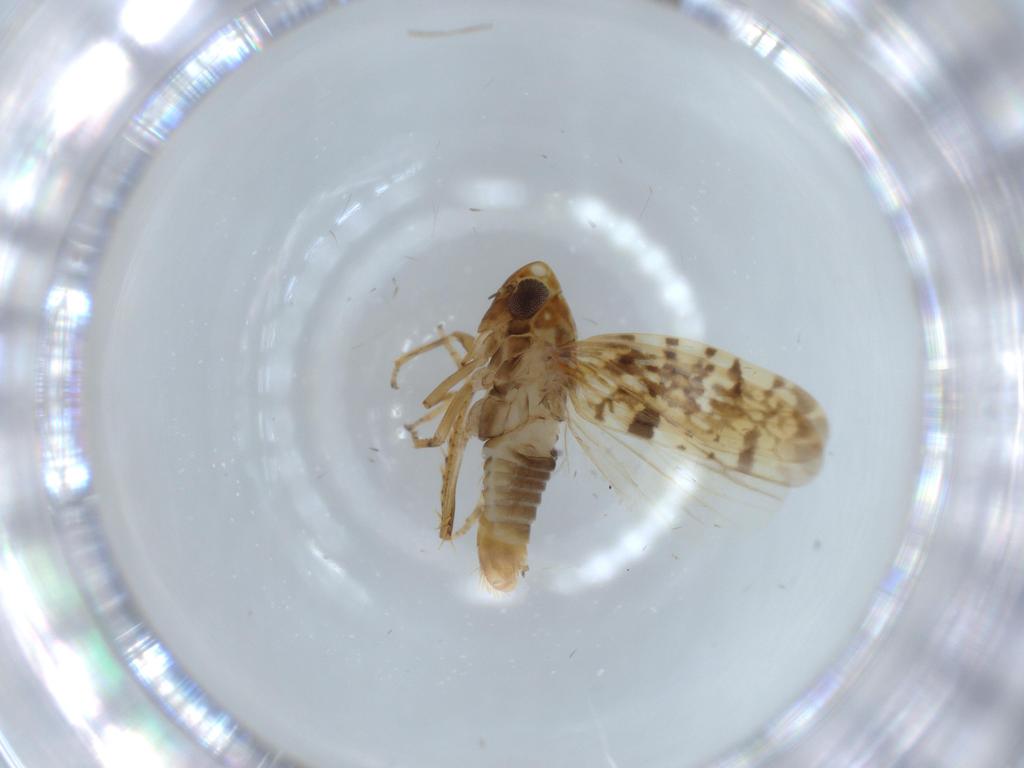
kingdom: Animalia
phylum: Arthropoda
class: Insecta
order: Hemiptera
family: Cicadellidae
